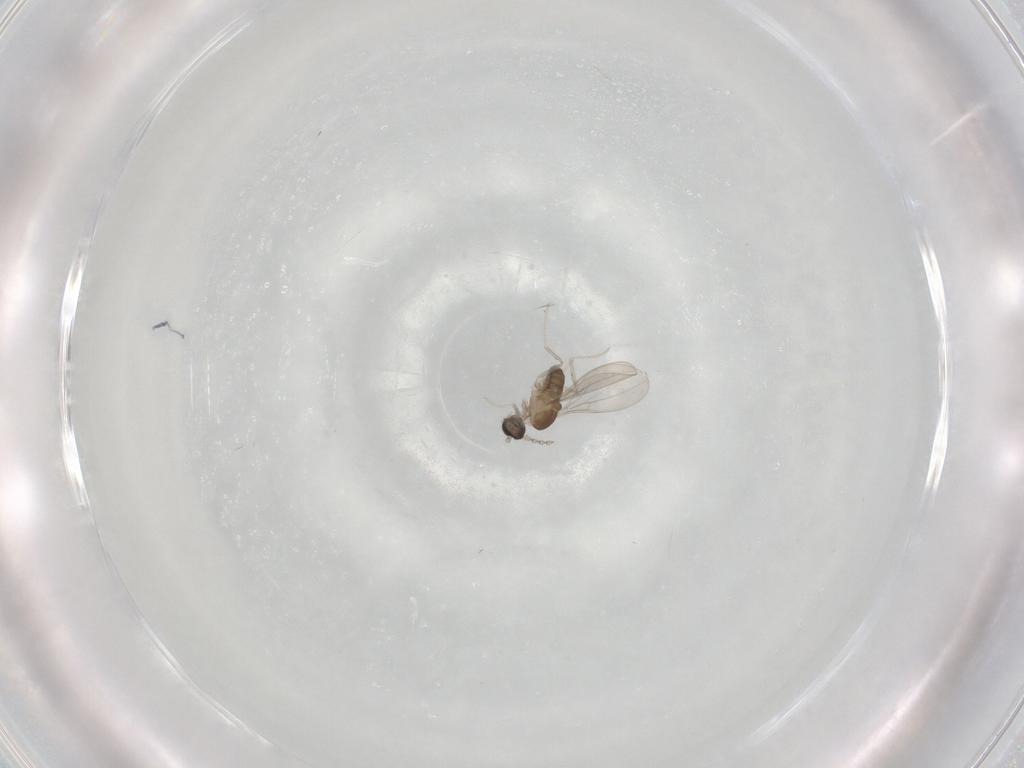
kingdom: Animalia
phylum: Arthropoda
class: Insecta
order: Diptera
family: Cecidomyiidae
